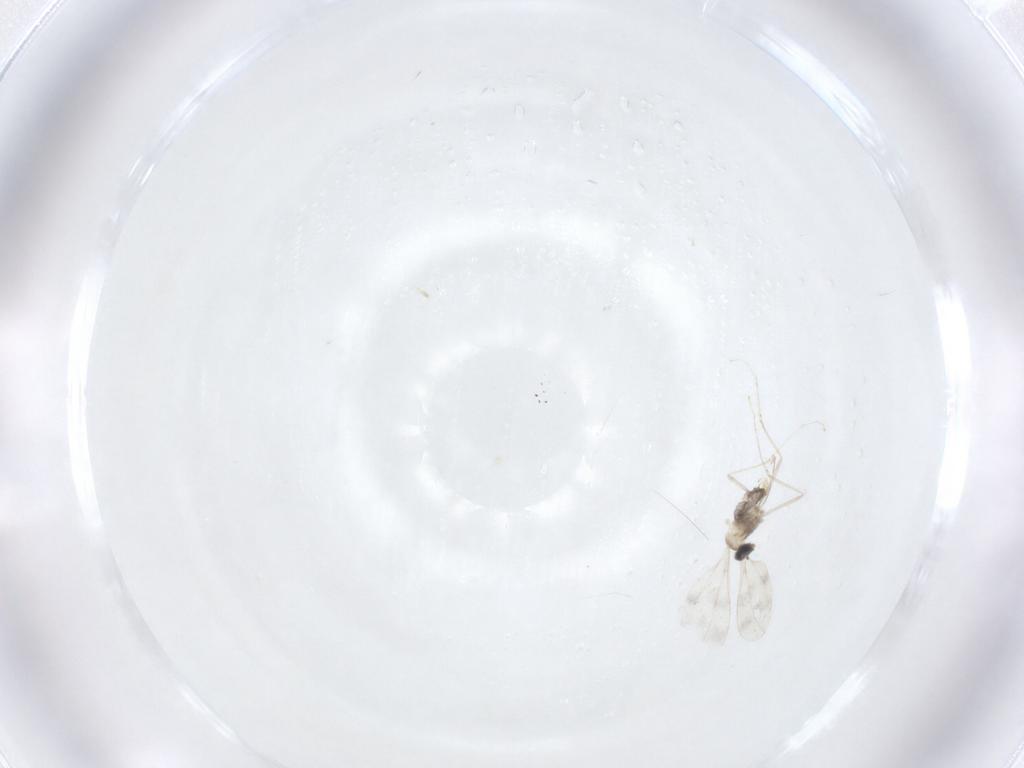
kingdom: Animalia
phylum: Arthropoda
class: Insecta
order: Diptera
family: Cecidomyiidae
